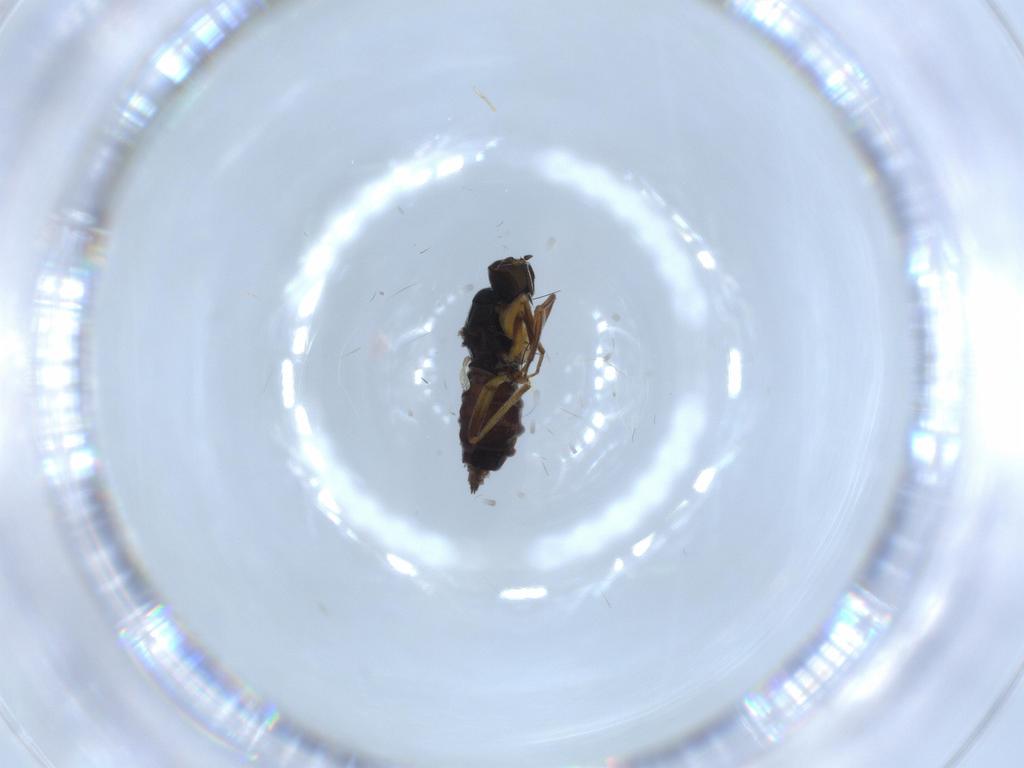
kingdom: Animalia
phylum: Arthropoda
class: Insecta
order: Diptera
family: Hybotidae
